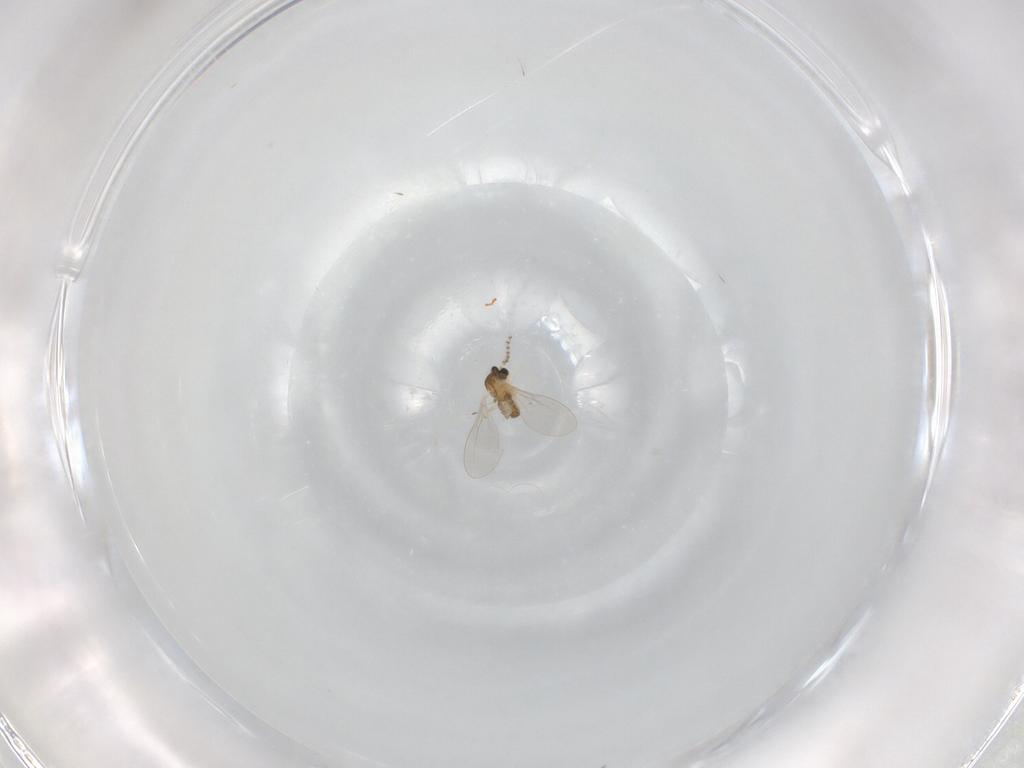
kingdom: Animalia
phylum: Arthropoda
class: Insecta
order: Diptera
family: Cecidomyiidae
